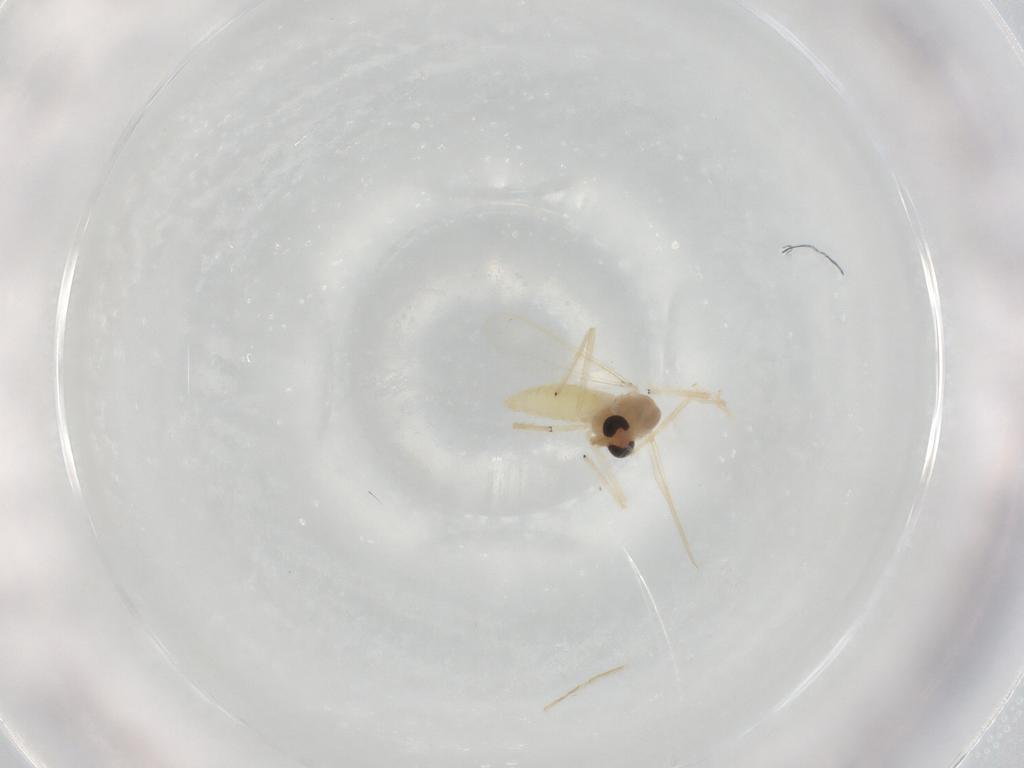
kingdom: Animalia
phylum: Arthropoda
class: Insecta
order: Diptera
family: Chironomidae
